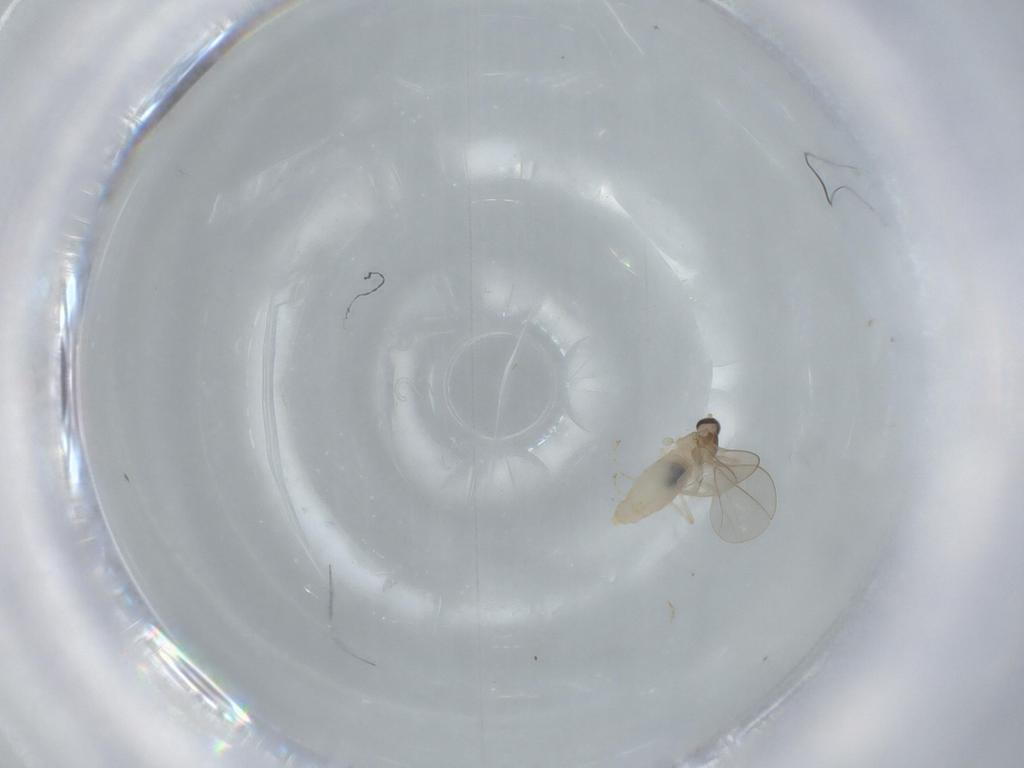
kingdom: Animalia
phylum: Arthropoda
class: Insecta
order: Diptera
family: Cecidomyiidae
